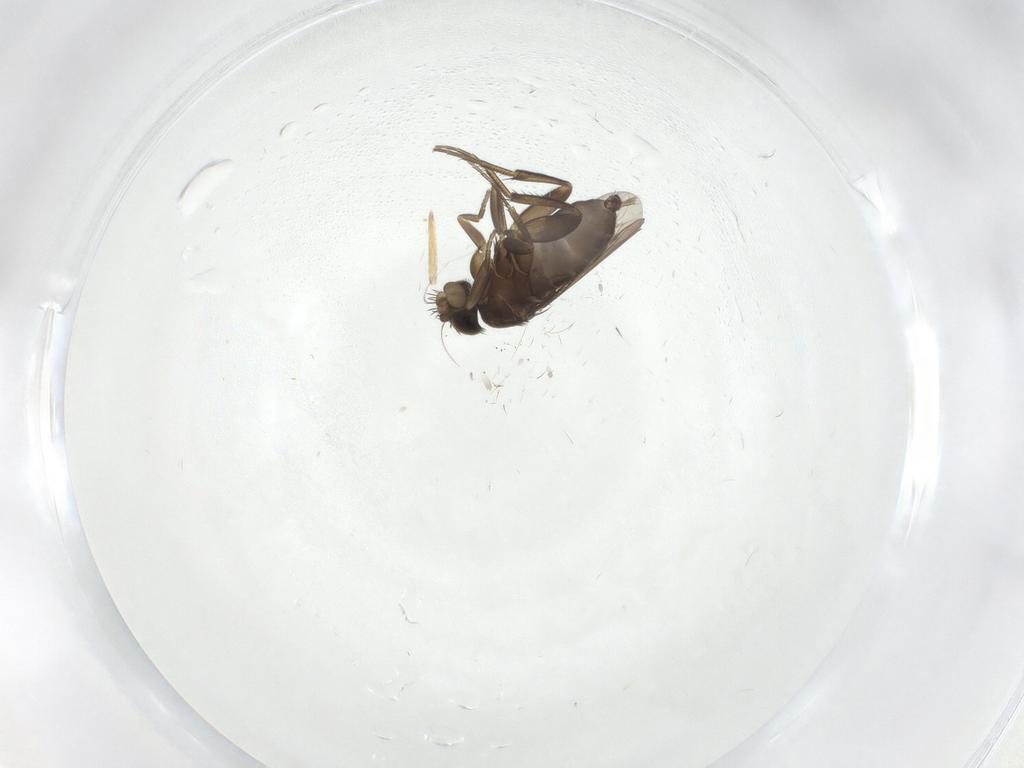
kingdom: Animalia
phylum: Arthropoda
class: Insecta
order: Diptera
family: Phoridae
